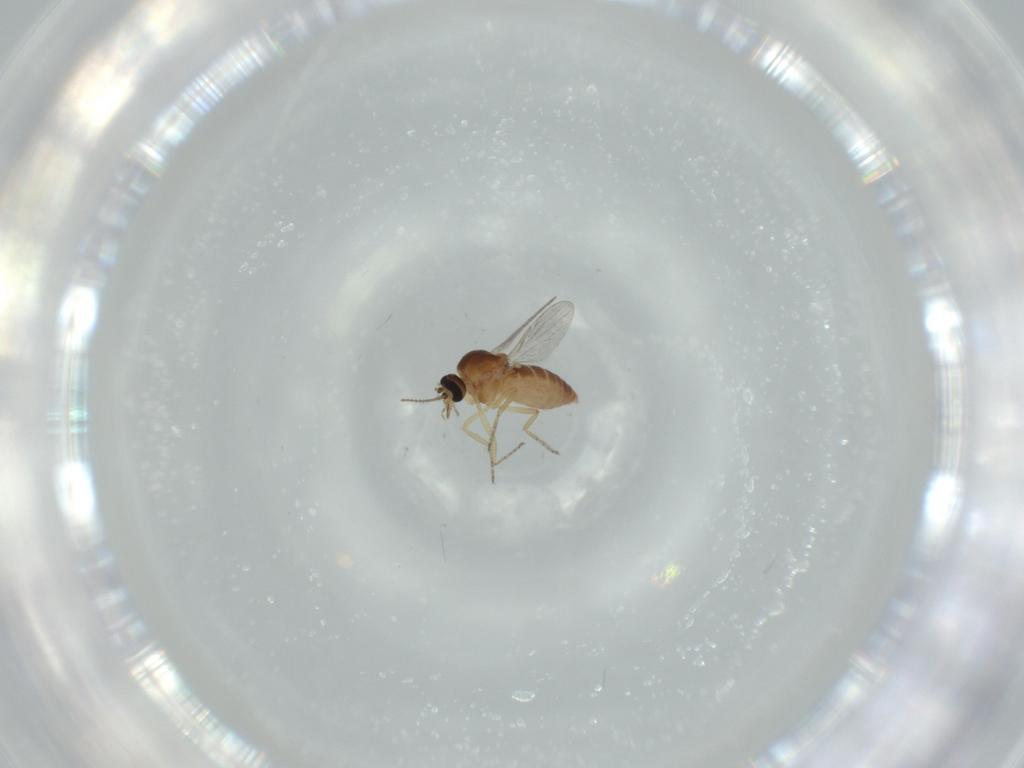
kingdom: Animalia
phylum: Arthropoda
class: Insecta
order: Diptera
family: Ceratopogonidae
